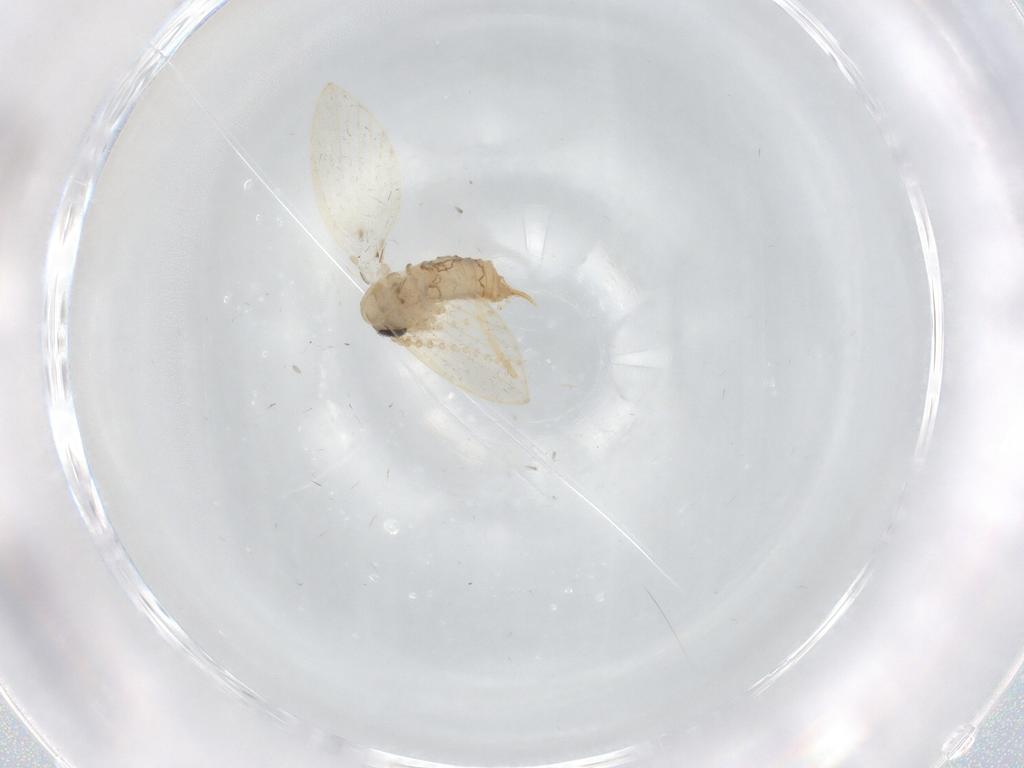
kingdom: Animalia
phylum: Arthropoda
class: Insecta
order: Diptera
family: Psychodidae
